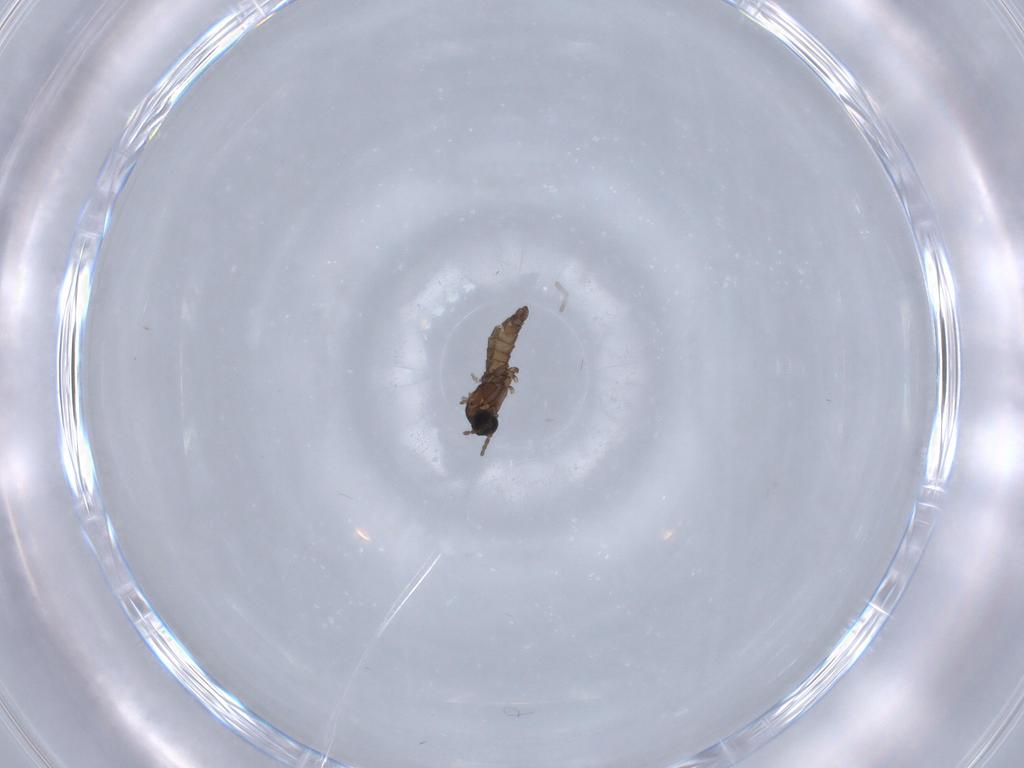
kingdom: Animalia
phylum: Arthropoda
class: Insecta
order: Diptera
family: Sciaridae
